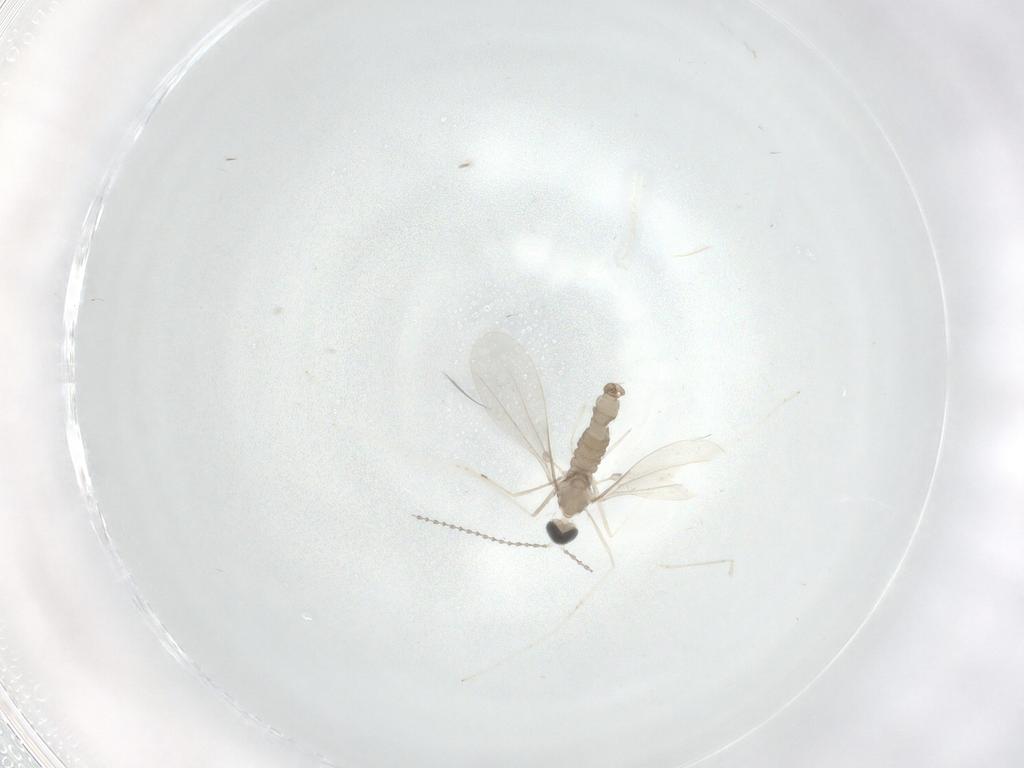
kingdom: Animalia
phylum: Arthropoda
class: Insecta
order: Diptera
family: Cecidomyiidae
